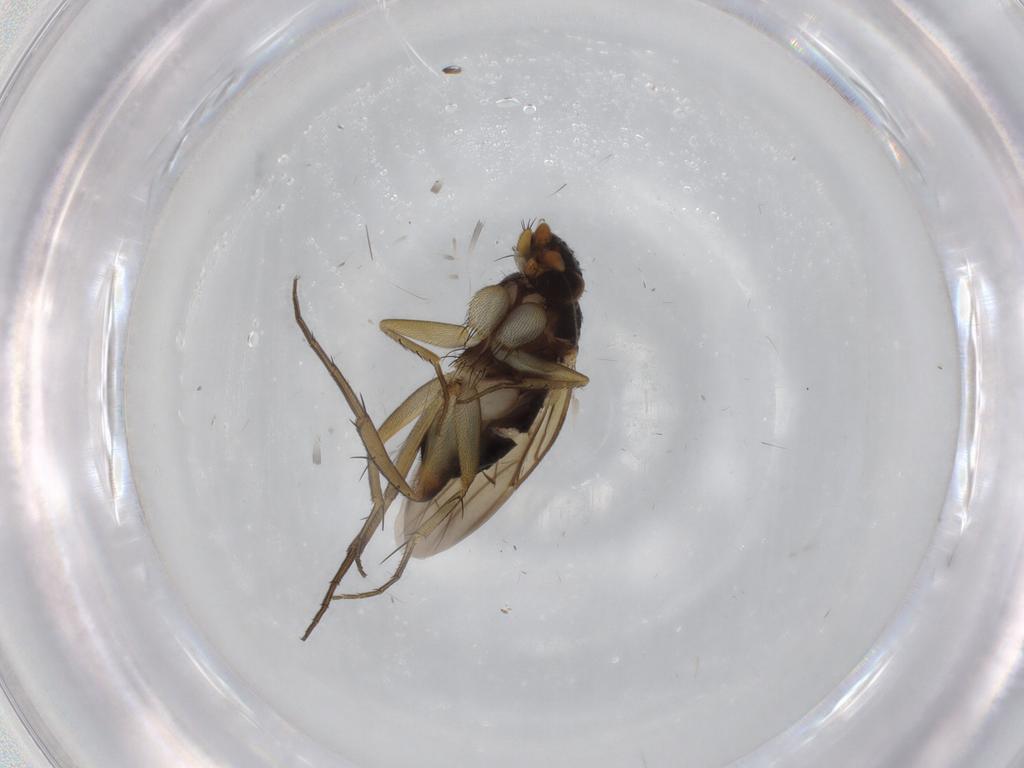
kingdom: Animalia
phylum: Arthropoda
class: Insecta
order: Diptera
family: Phoridae
